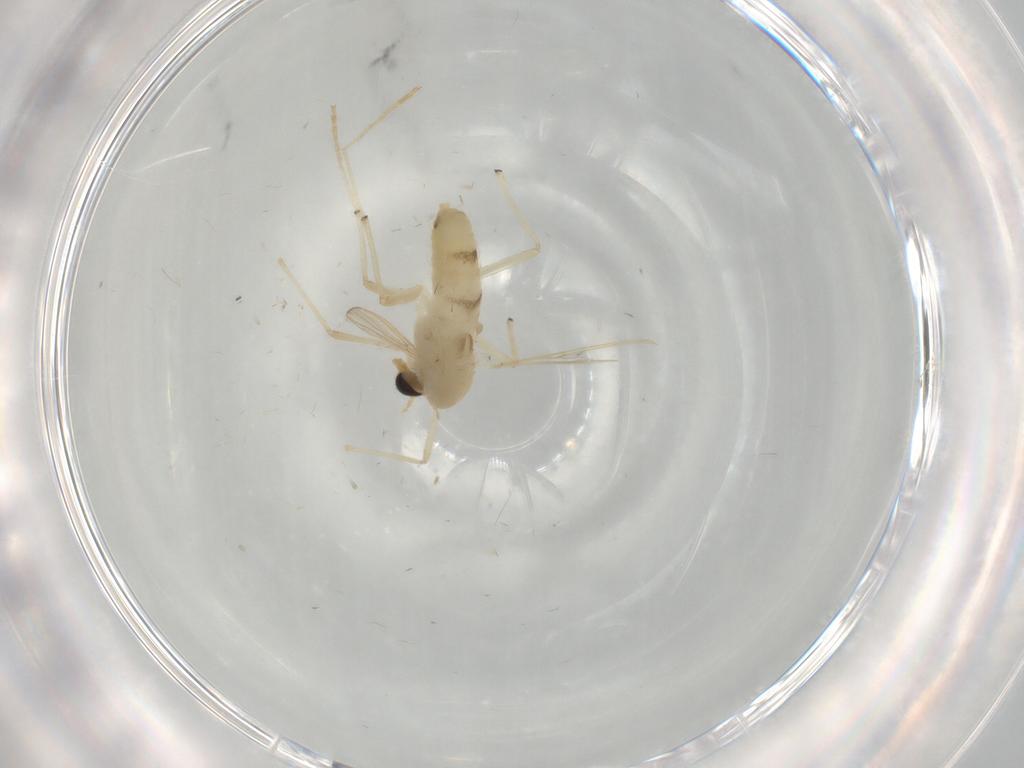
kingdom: Animalia
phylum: Arthropoda
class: Insecta
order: Diptera
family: Chironomidae
